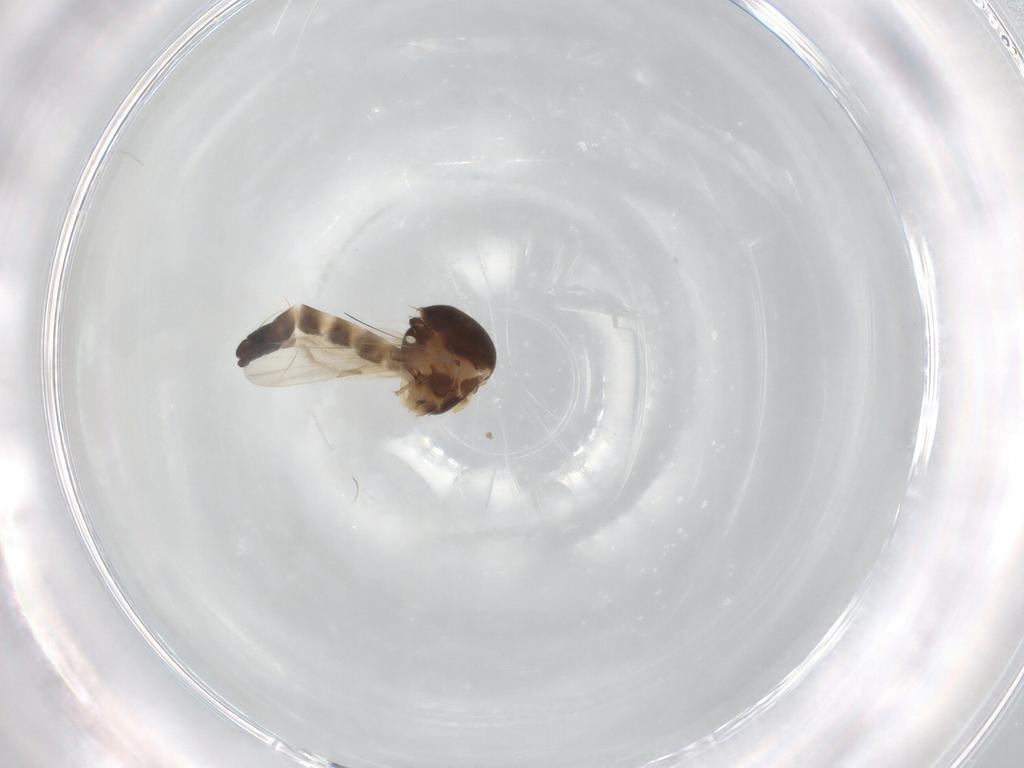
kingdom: Animalia
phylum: Arthropoda
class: Insecta
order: Diptera
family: Ceratopogonidae
